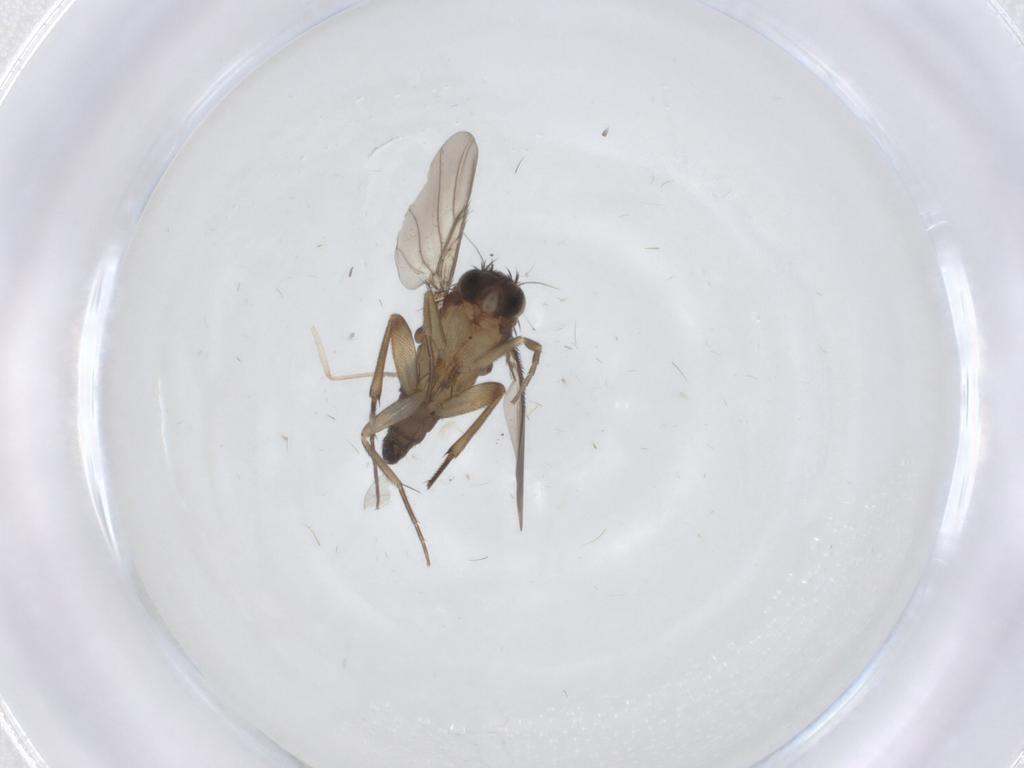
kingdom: Animalia
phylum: Arthropoda
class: Insecta
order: Diptera
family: Phoridae
